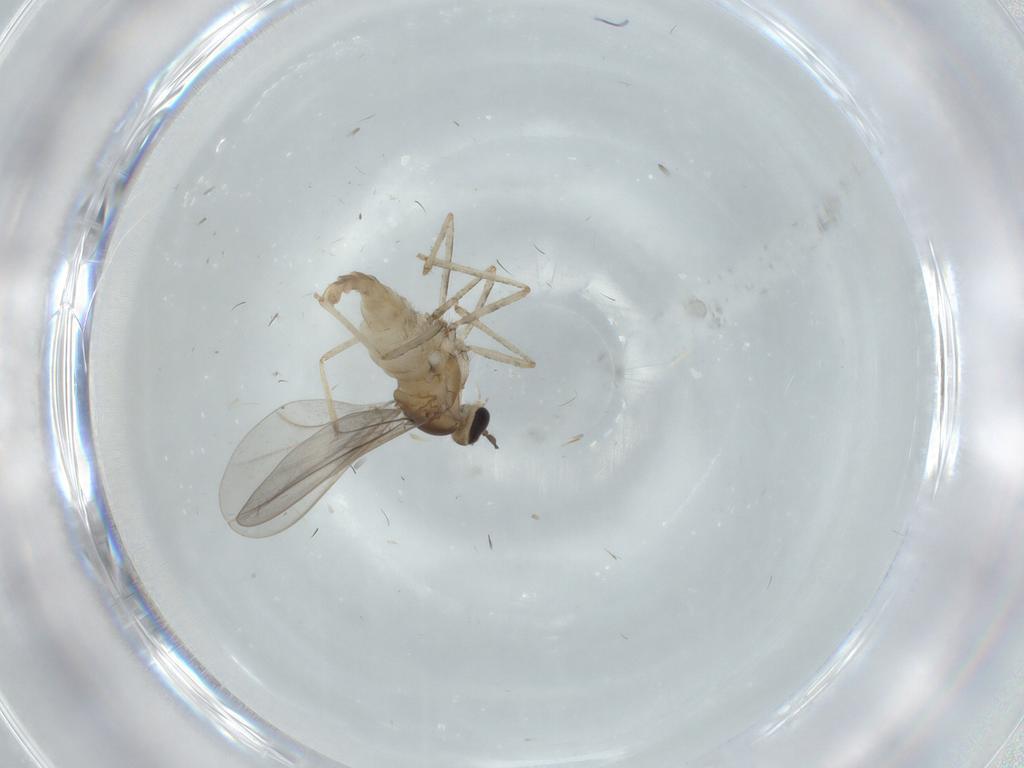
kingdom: Animalia
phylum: Arthropoda
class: Insecta
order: Diptera
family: Cecidomyiidae
